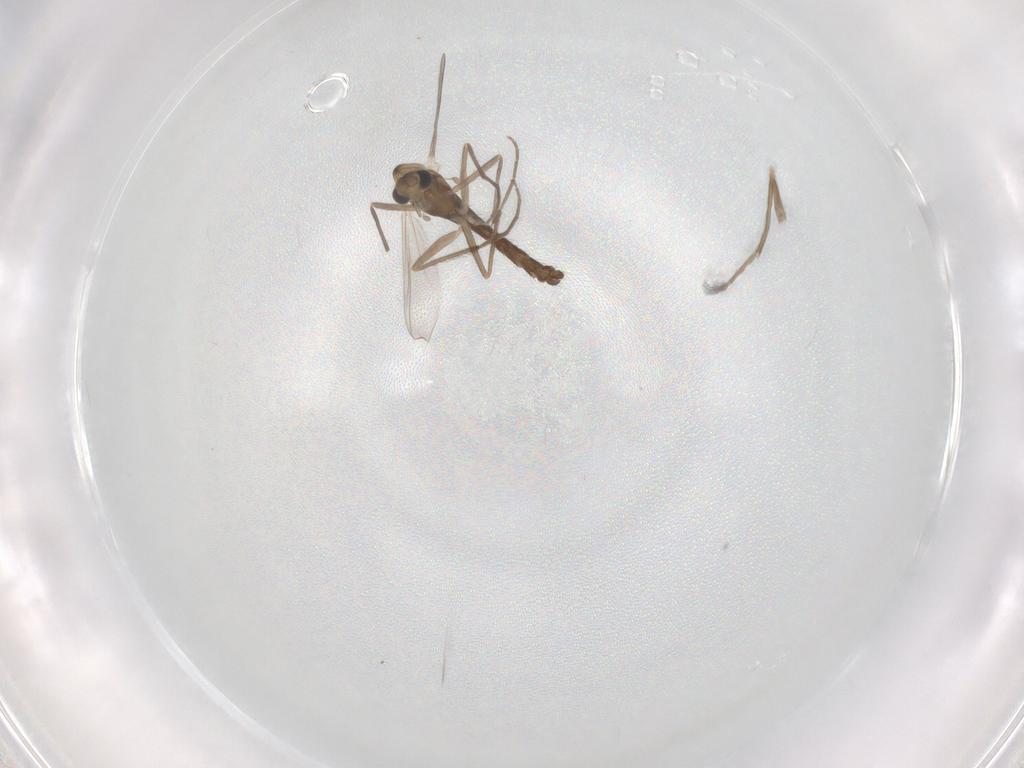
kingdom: Animalia
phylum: Arthropoda
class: Insecta
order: Diptera
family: Chironomidae
